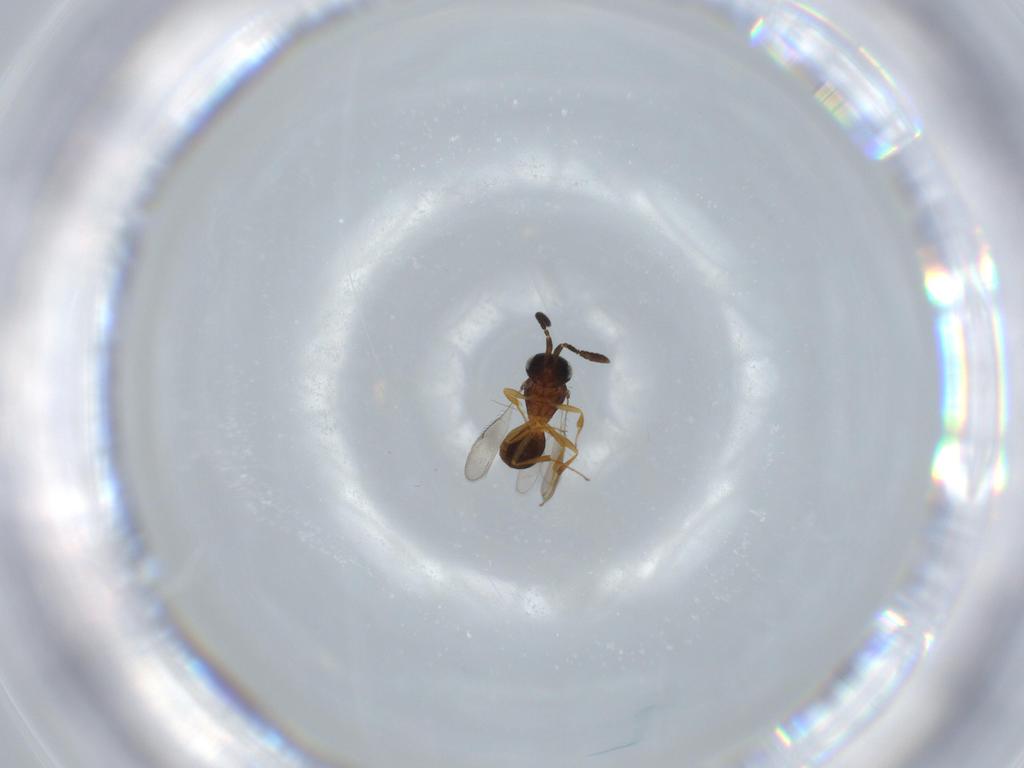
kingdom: Animalia
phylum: Arthropoda
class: Insecta
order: Hymenoptera
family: Scelionidae
